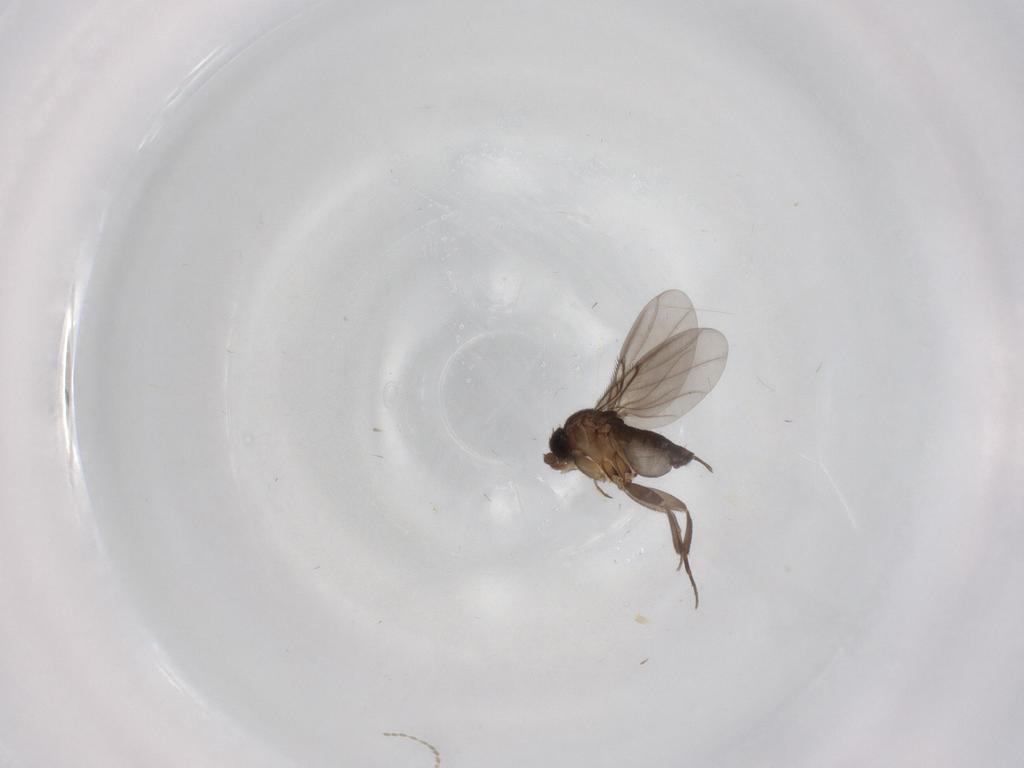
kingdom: Animalia
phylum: Arthropoda
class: Insecta
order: Diptera
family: Phoridae
